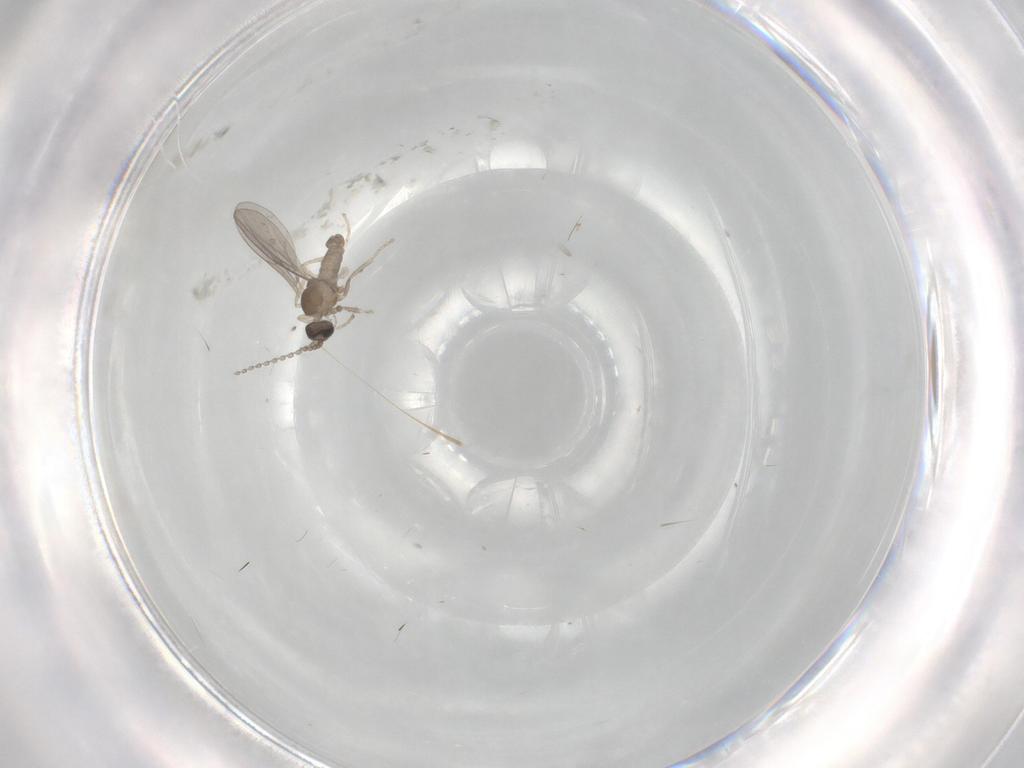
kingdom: Animalia
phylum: Arthropoda
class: Insecta
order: Diptera
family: Cecidomyiidae
